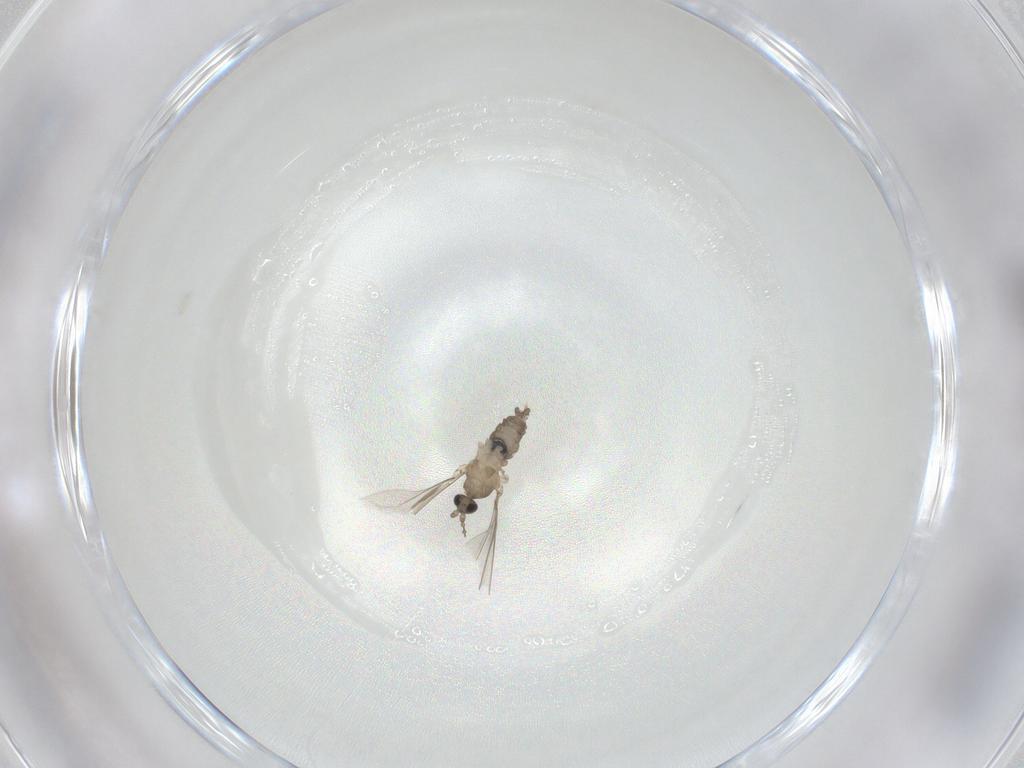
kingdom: Animalia
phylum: Arthropoda
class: Insecta
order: Diptera
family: Cecidomyiidae
